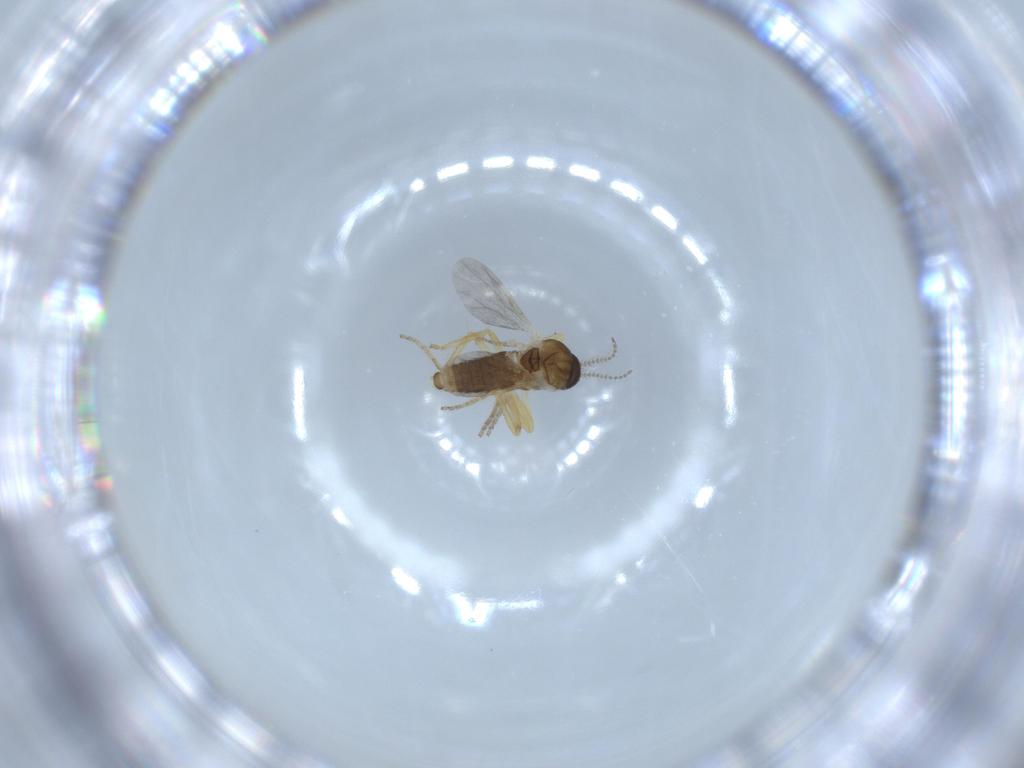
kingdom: Animalia
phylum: Arthropoda
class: Insecta
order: Diptera
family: Ceratopogonidae
